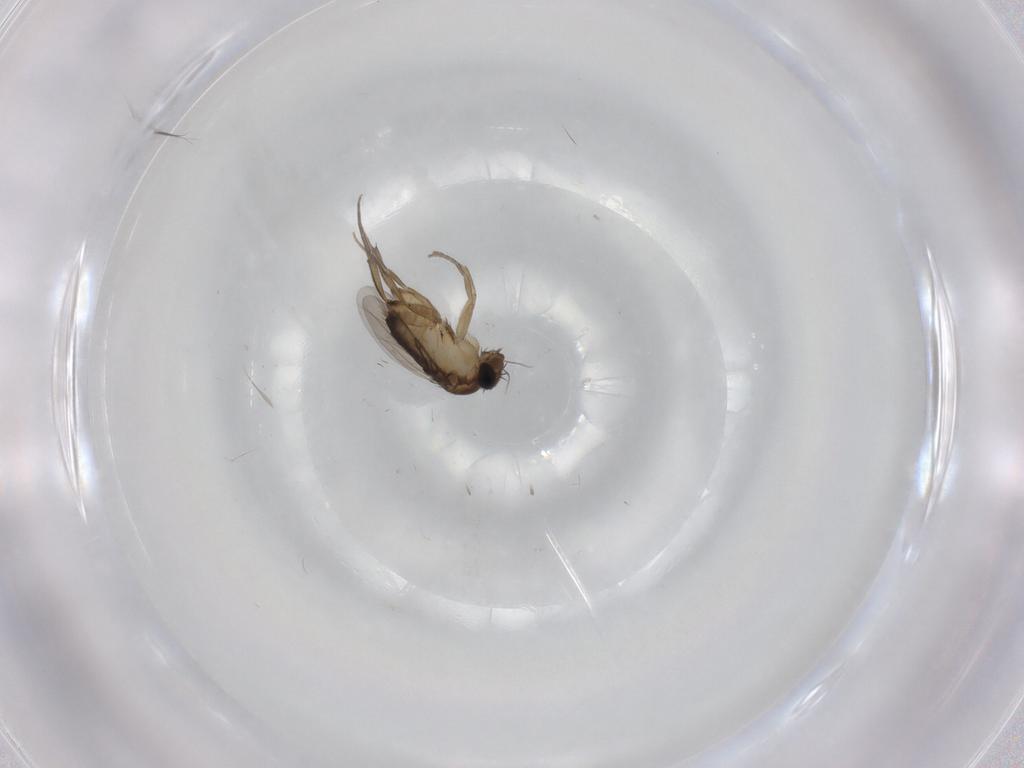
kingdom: Animalia
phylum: Arthropoda
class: Insecta
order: Diptera
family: Phoridae
